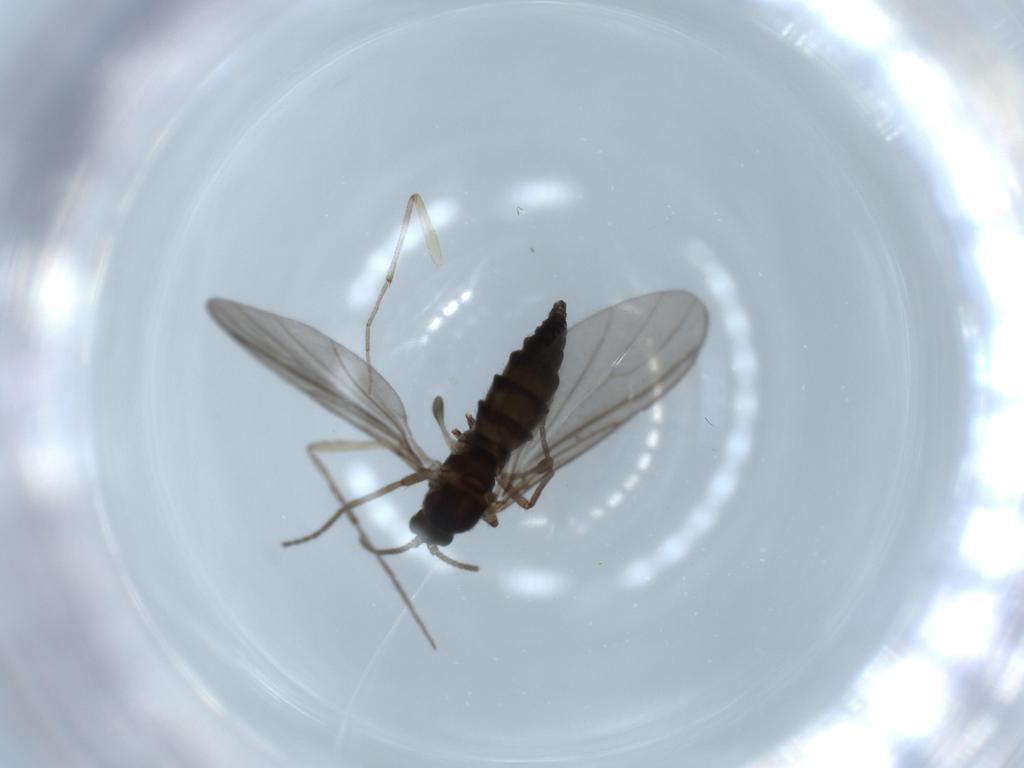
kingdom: Animalia
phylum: Arthropoda
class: Insecta
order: Diptera
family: Sciaridae
